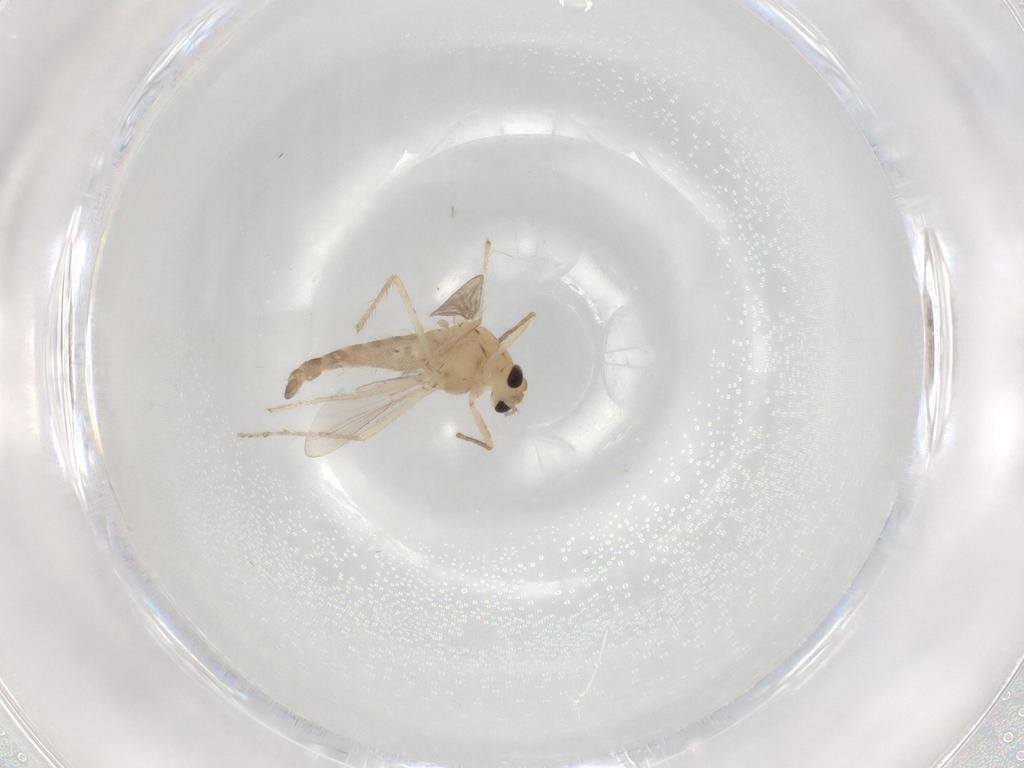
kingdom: Animalia
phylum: Arthropoda
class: Insecta
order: Diptera
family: Chironomidae
